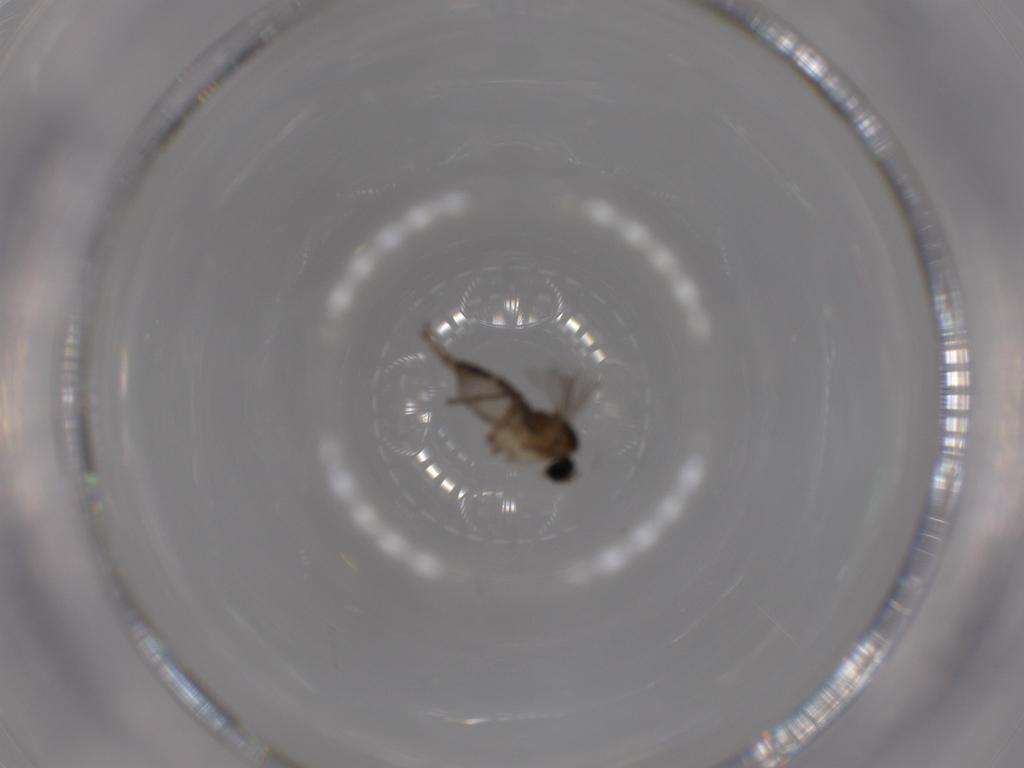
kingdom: Animalia
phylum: Arthropoda
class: Insecta
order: Diptera
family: Sciaridae
